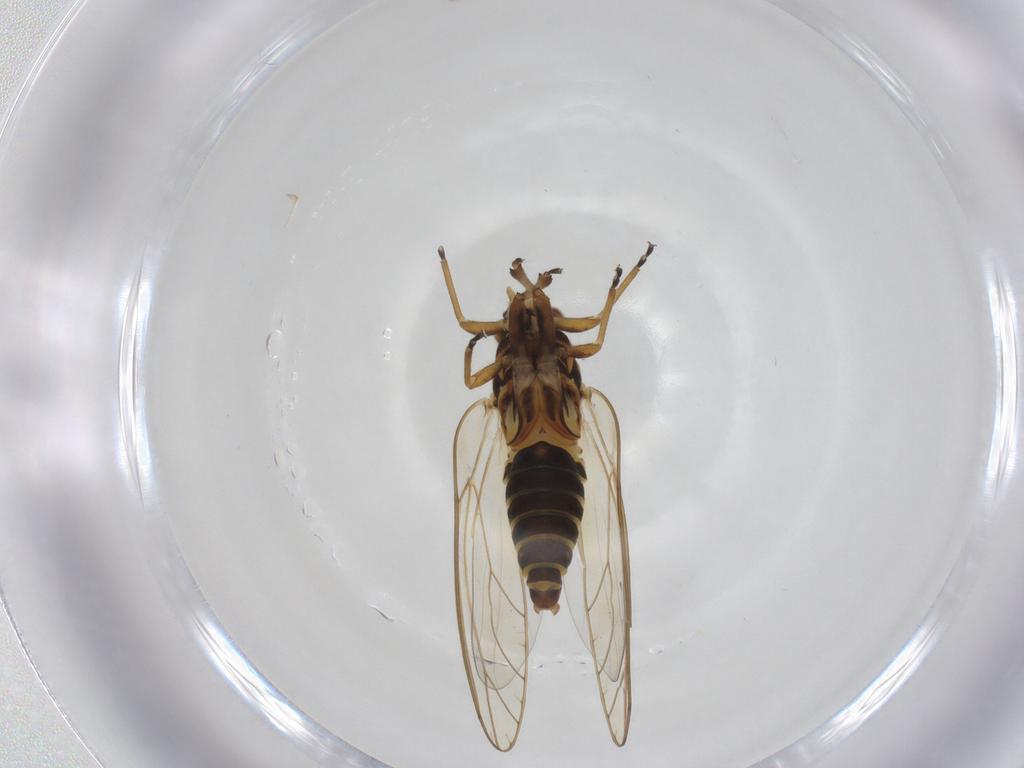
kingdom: Animalia
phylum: Arthropoda
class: Insecta
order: Hemiptera
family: Triozidae
